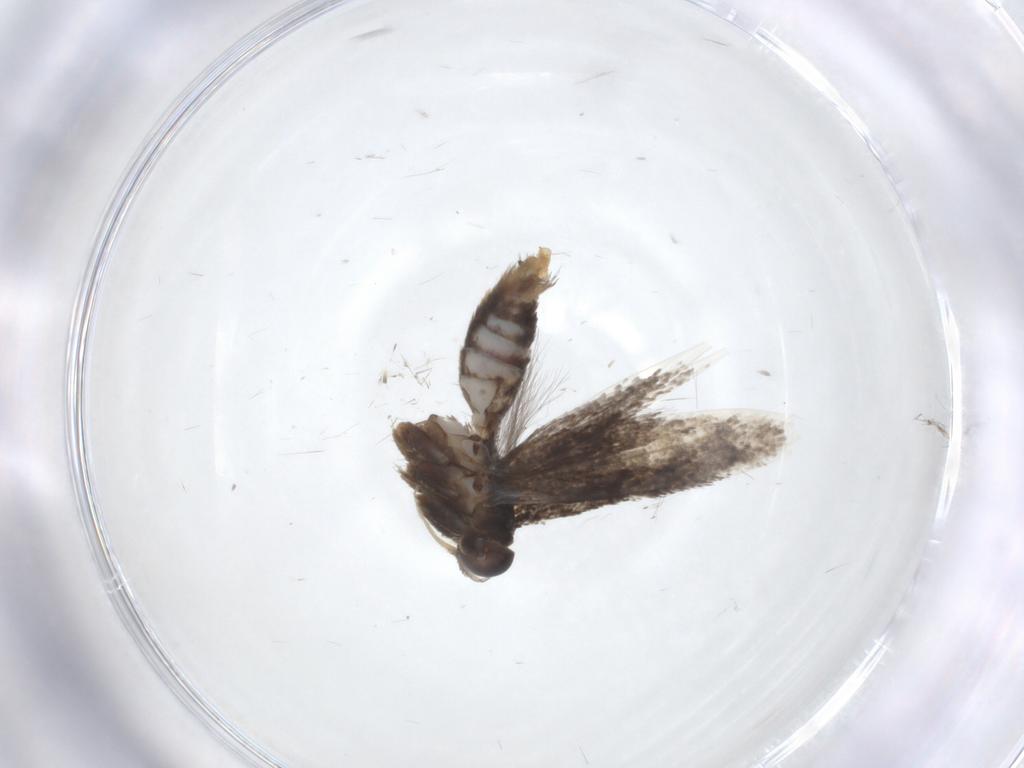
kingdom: Animalia
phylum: Arthropoda
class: Insecta
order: Lepidoptera
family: Elachistidae
